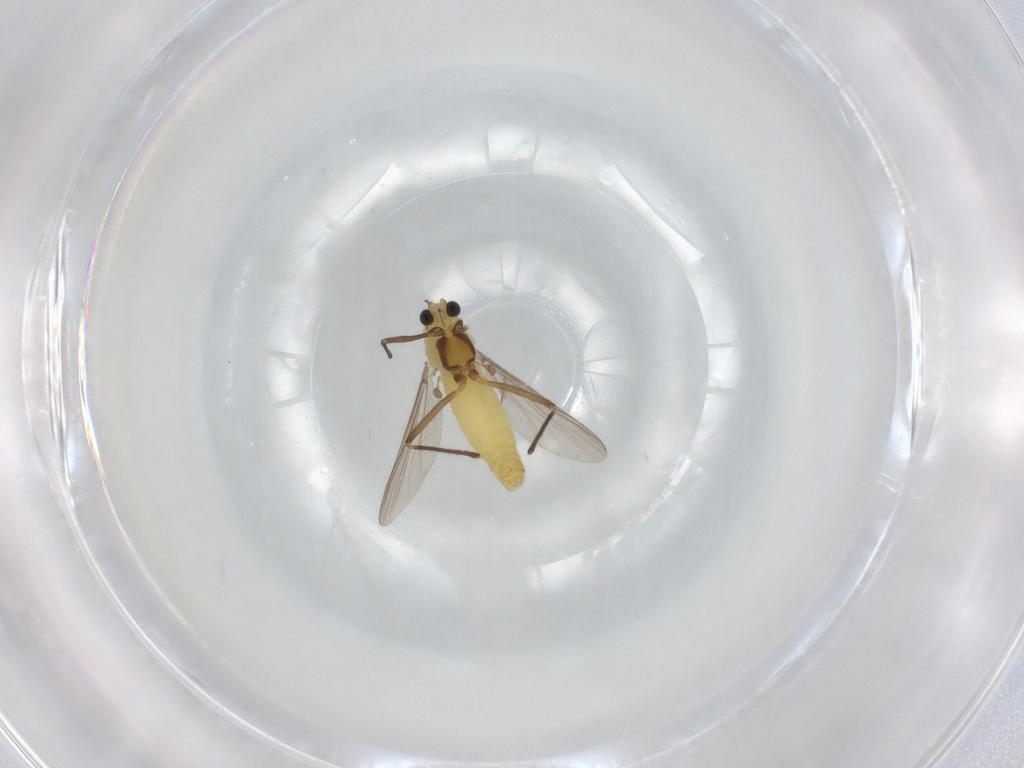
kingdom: Animalia
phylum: Arthropoda
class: Insecta
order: Diptera
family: Chironomidae
